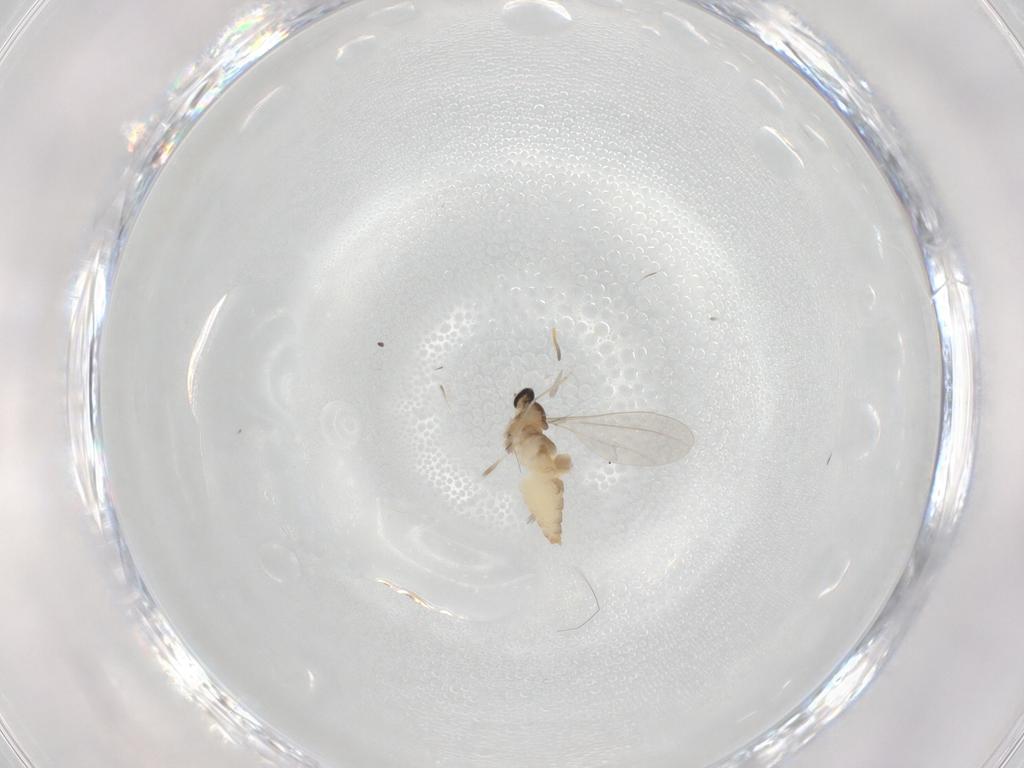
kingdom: Animalia
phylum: Arthropoda
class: Insecta
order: Diptera
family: Cecidomyiidae
